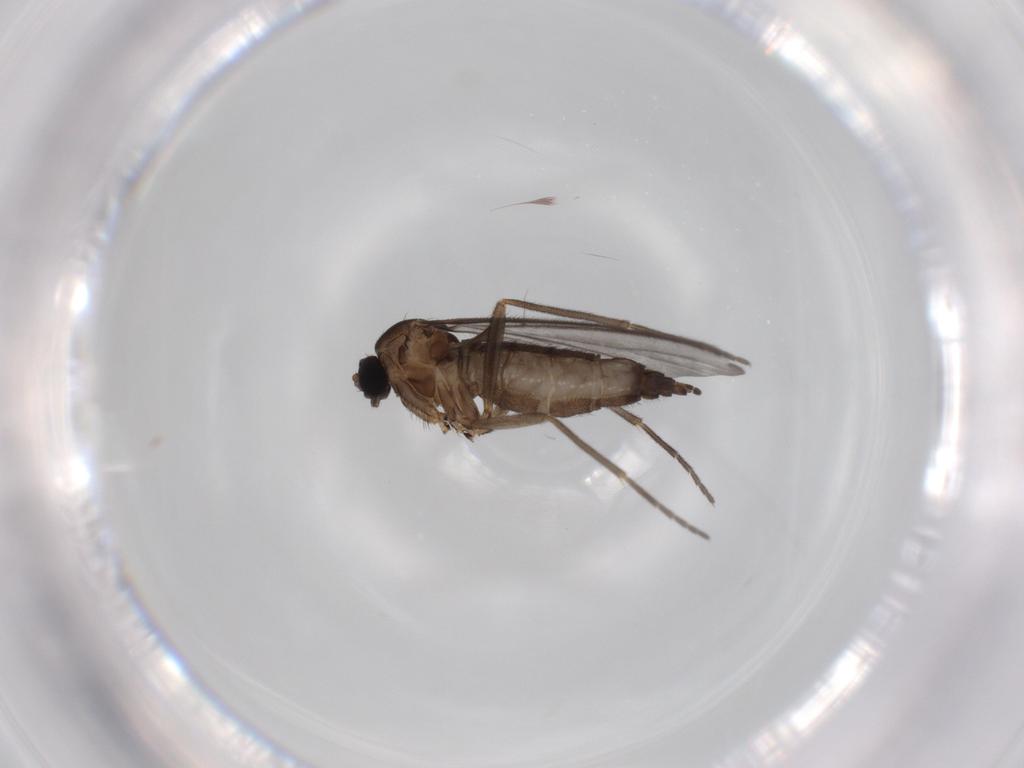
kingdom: Animalia
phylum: Arthropoda
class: Insecta
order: Diptera
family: Sciaridae
